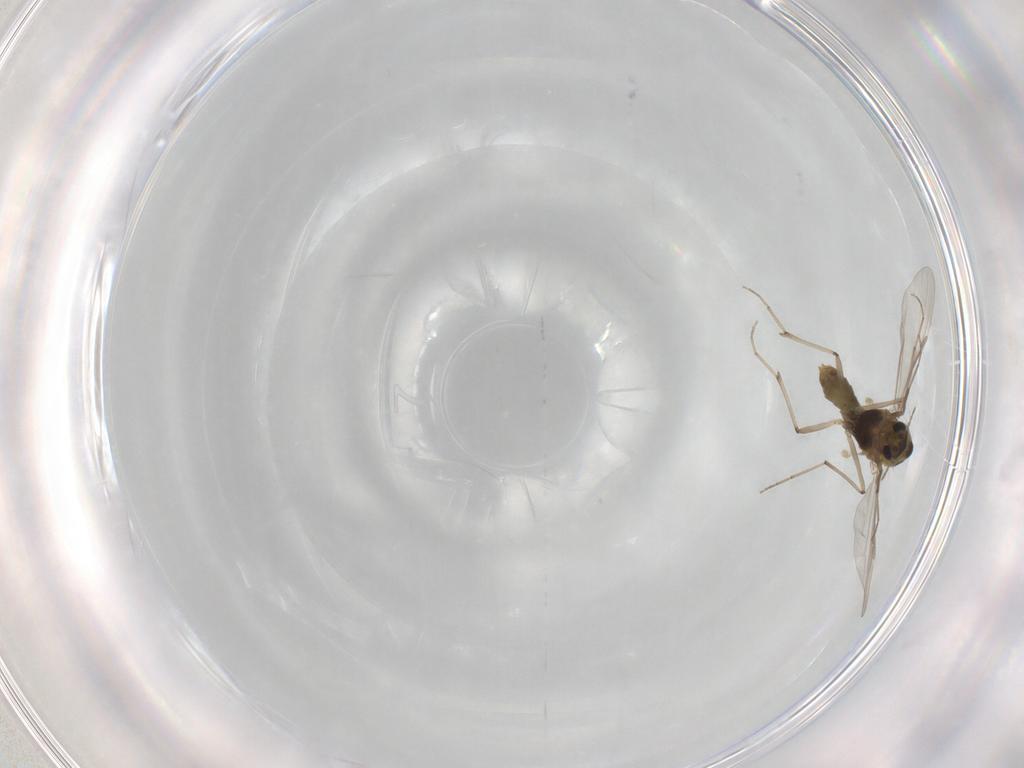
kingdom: Animalia
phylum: Arthropoda
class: Insecta
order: Diptera
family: Chironomidae
